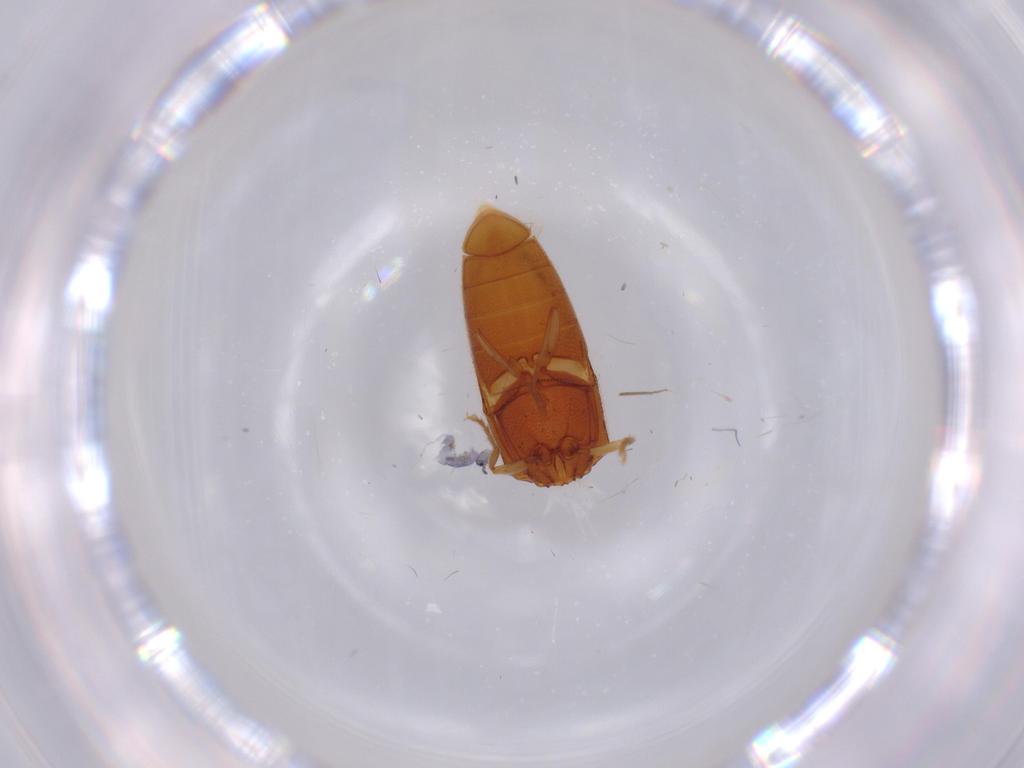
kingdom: Animalia
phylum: Arthropoda
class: Insecta
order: Coleoptera
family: Elateridae
